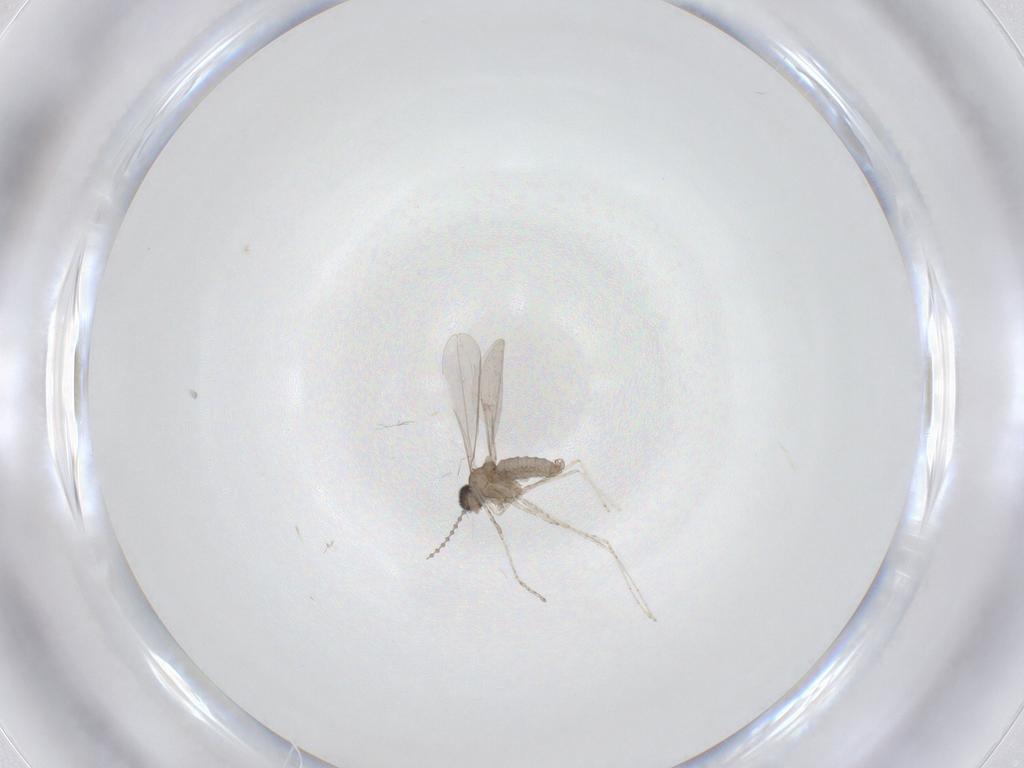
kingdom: Animalia
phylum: Arthropoda
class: Insecta
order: Diptera
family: Cecidomyiidae
